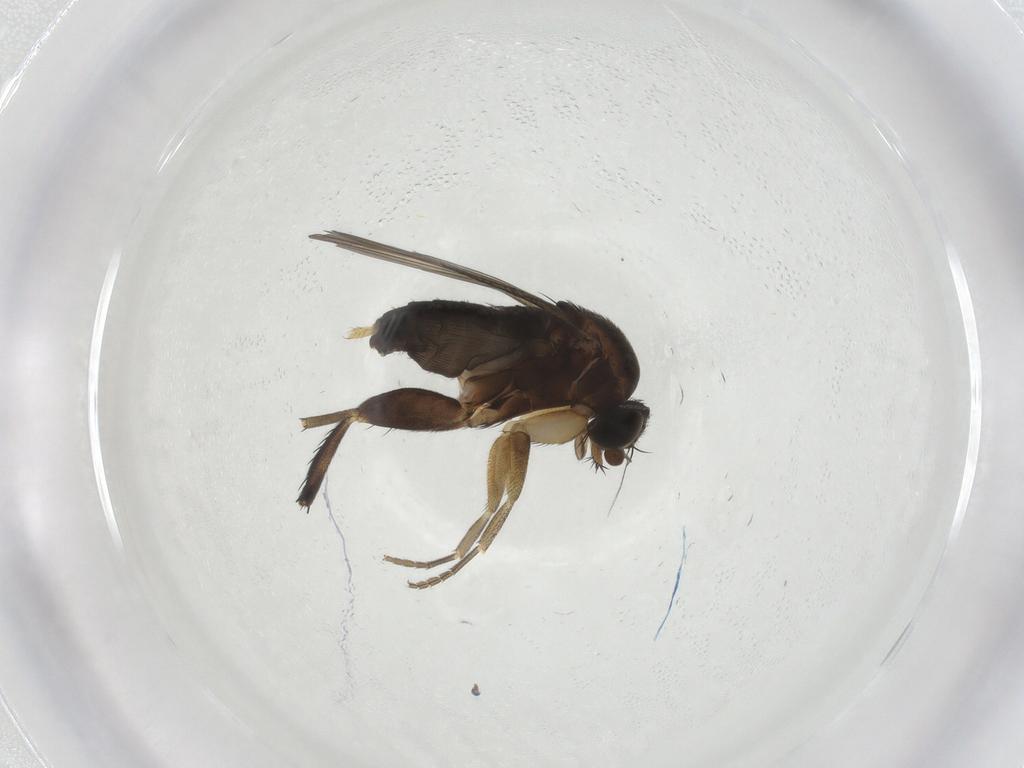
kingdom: Animalia
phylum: Arthropoda
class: Insecta
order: Diptera
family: Phoridae
